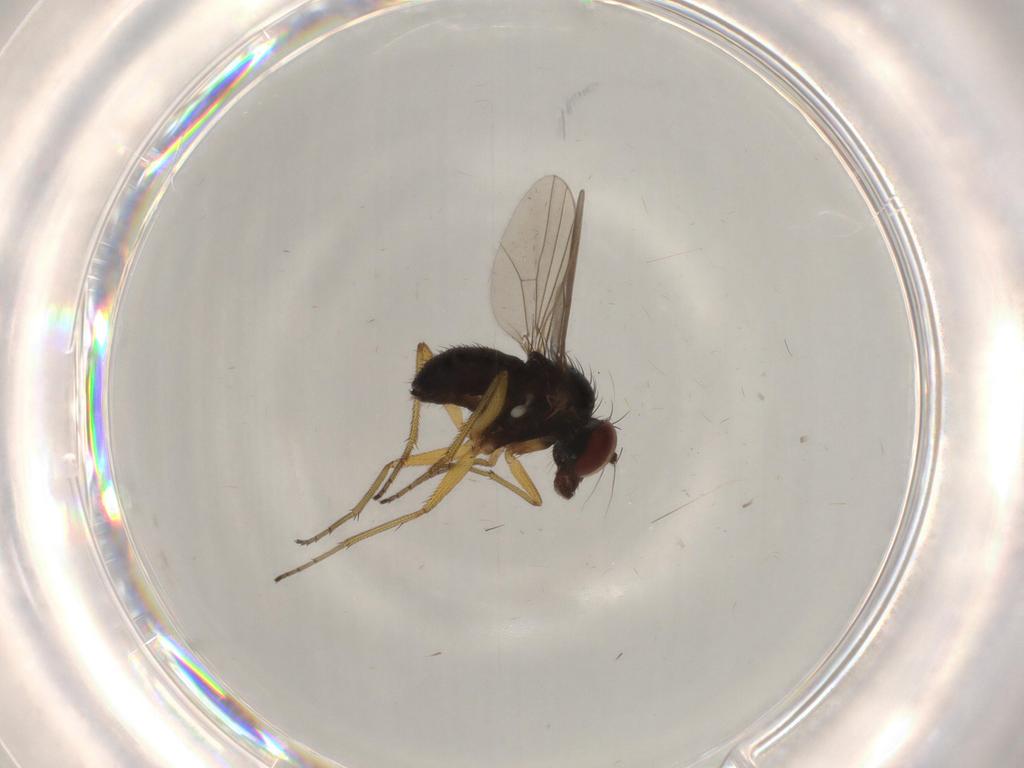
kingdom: Animalia
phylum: Arthropoda
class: Insecta
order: Diptera
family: Dolichopodidae
